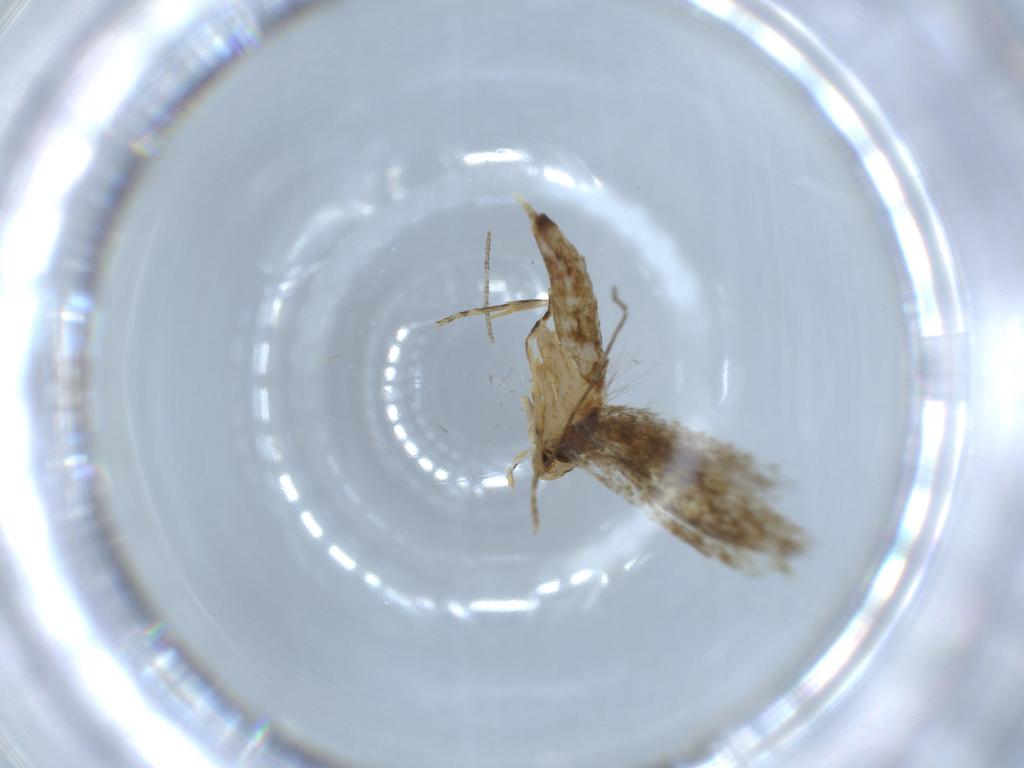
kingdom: Animalia
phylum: Arthropoda
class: Insecta
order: Lepidoptera
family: Tineidae
